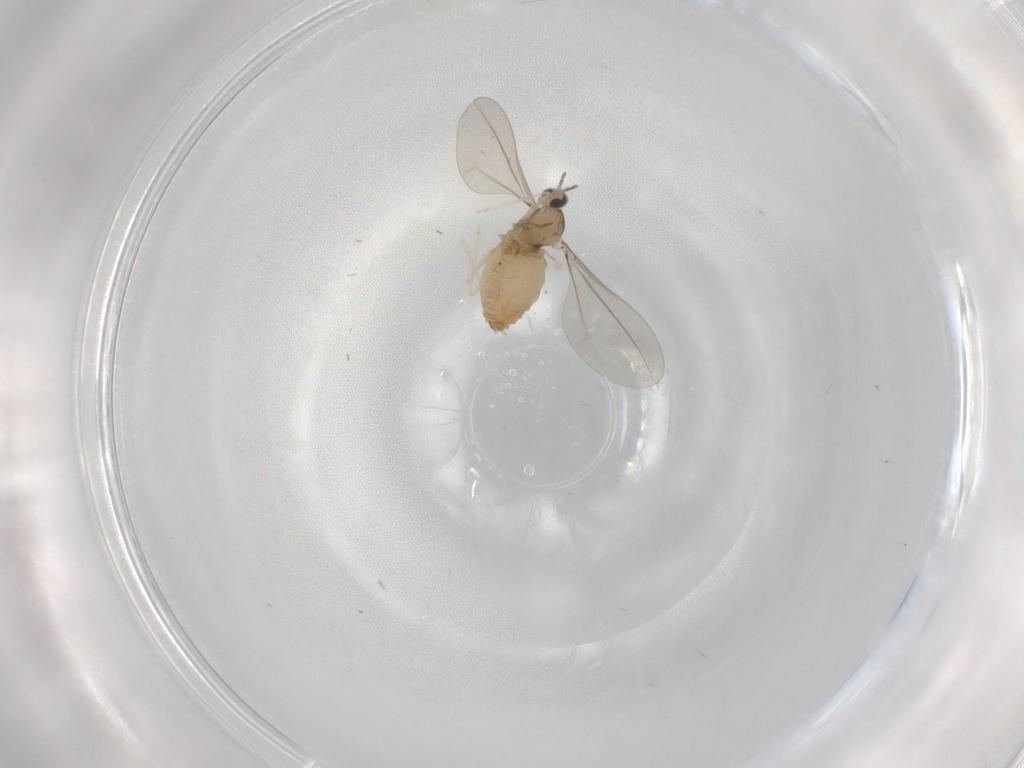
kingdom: Animalia
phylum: Arthropoda
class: Insecta
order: Diptera
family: Cecidomyiidae
